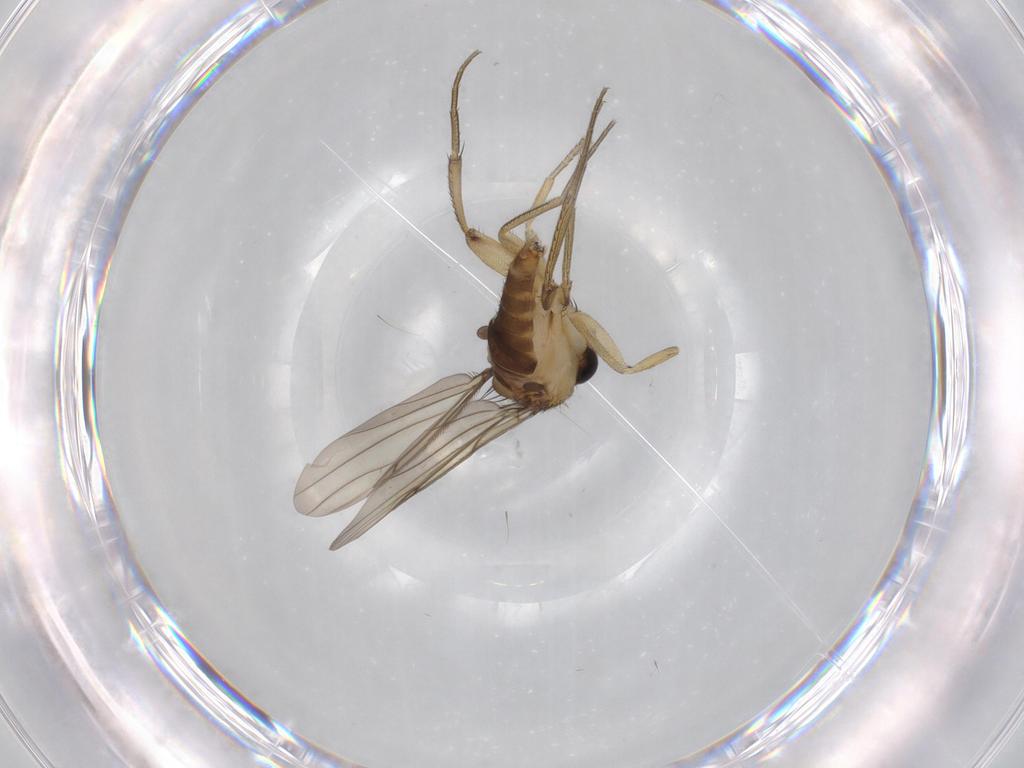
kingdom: Animalia
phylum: Arthropoda
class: Insecta
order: Diptera
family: Phoridae
